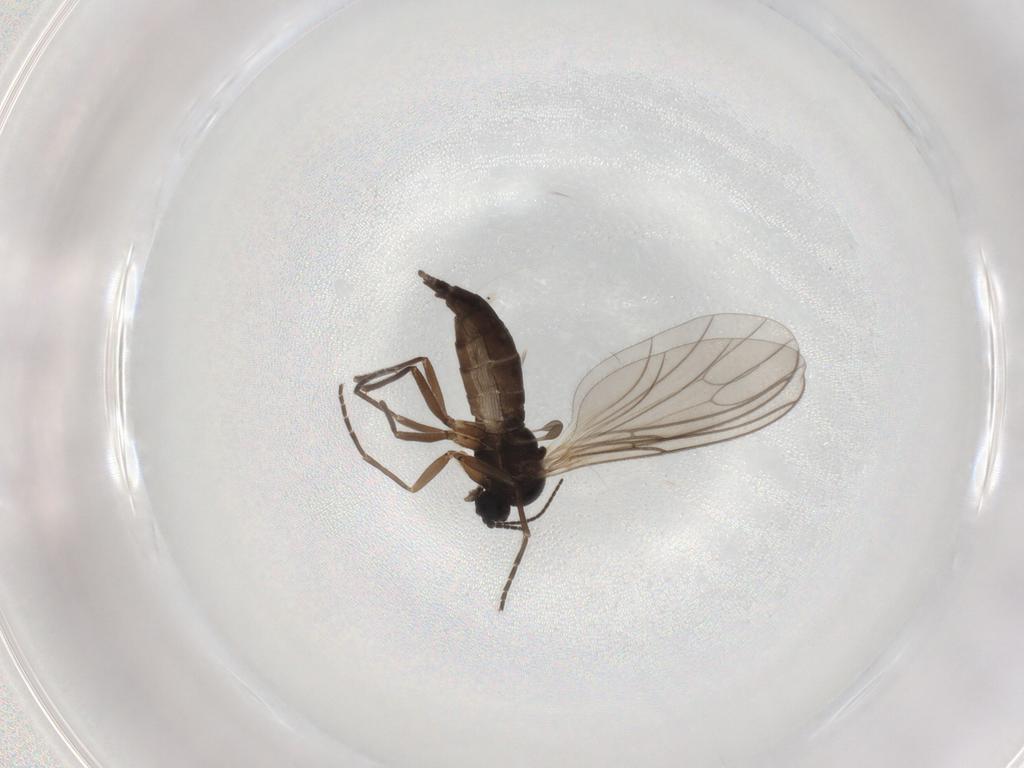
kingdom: Animalia
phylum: Arthropoda
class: Insecta
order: Diptera
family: Sciaridae
